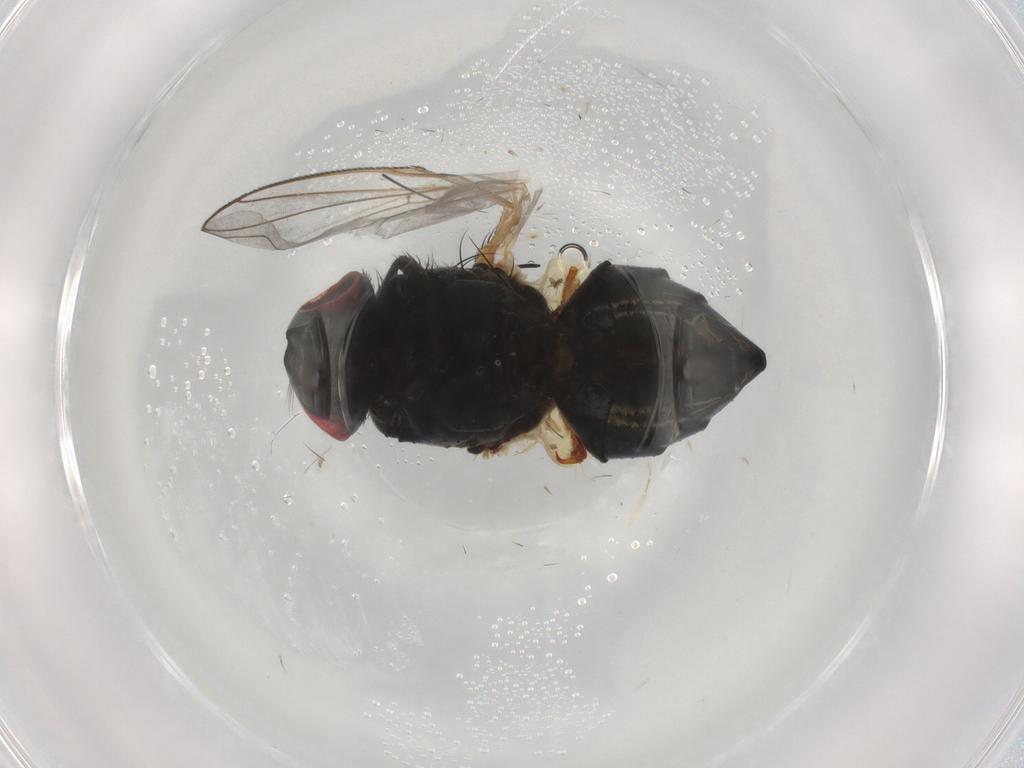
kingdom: Animalia
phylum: Arthropoda
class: Insecta
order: Diptera
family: Muscidae
